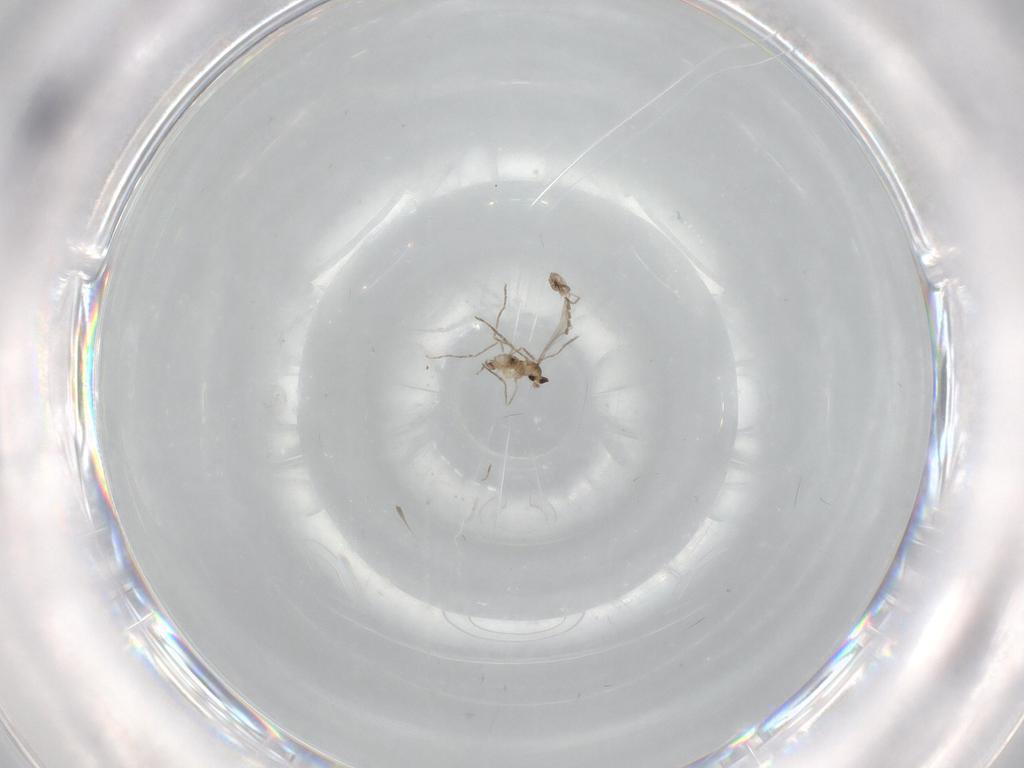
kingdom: Animalia
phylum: Arthropoda
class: Insecta
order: Diptera
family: Cecidomyiidae
